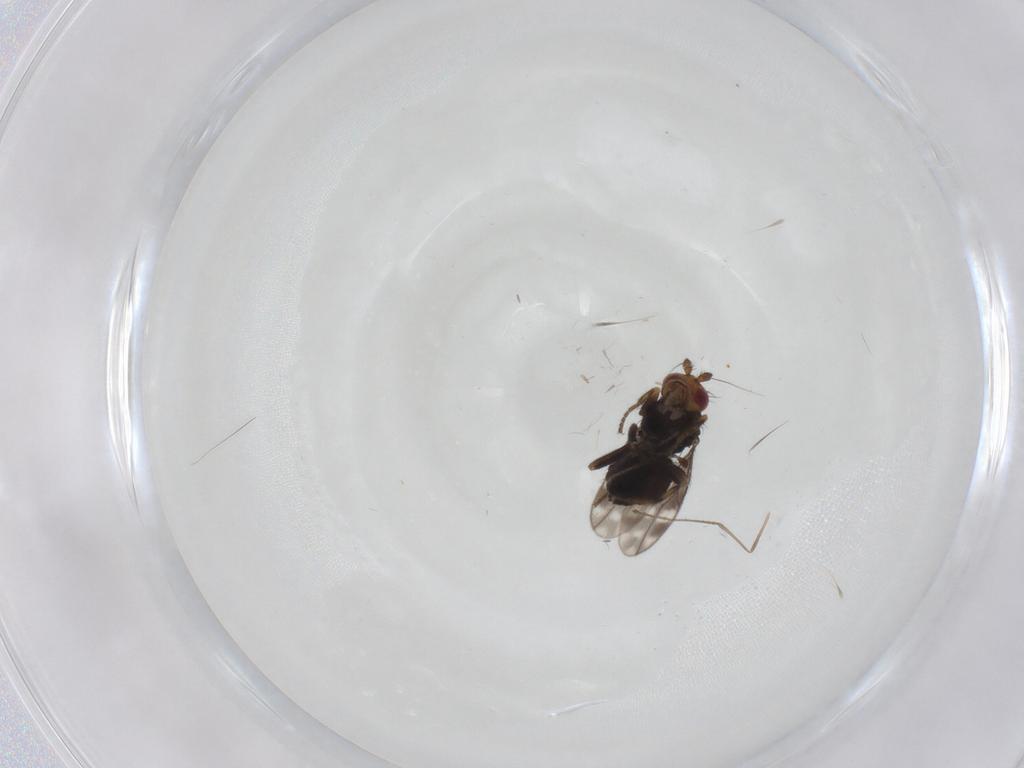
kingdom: Animalia
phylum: Arthropoda
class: Insecta
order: Diptera
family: Sphaeroceridae
